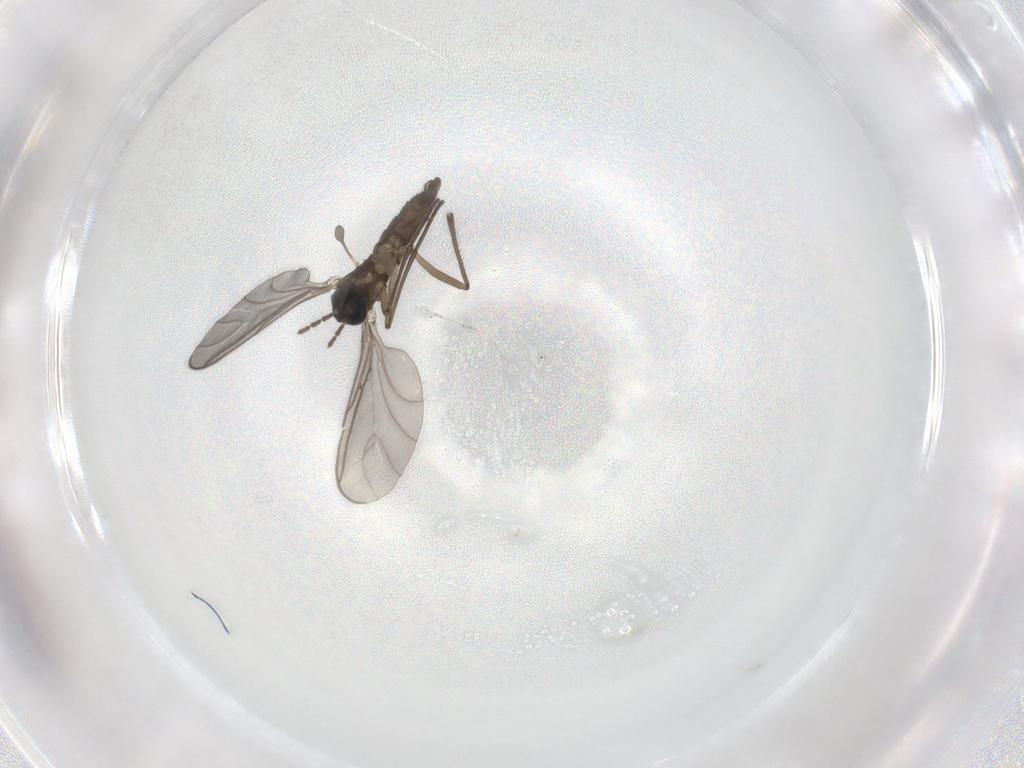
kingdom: Animalia
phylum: Arthropoda
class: Insecta
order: Diptera
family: Sciaridae
